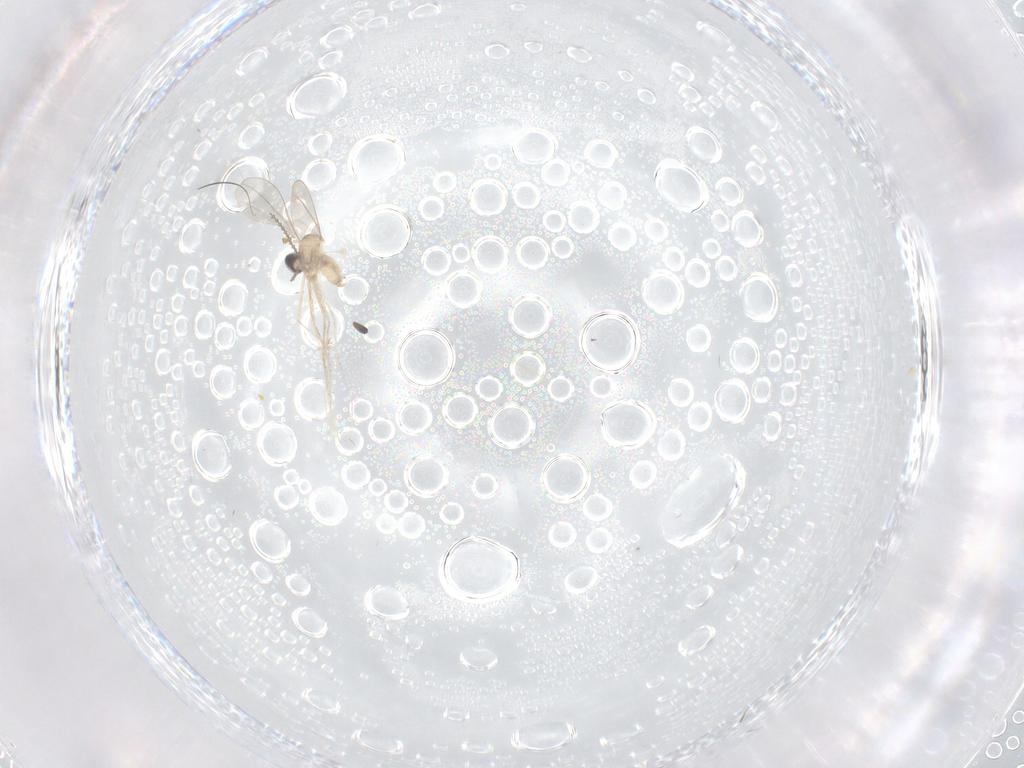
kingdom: Animalia
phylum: Arthropoda
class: Insecta
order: Diptera
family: Cecidomyiidae
